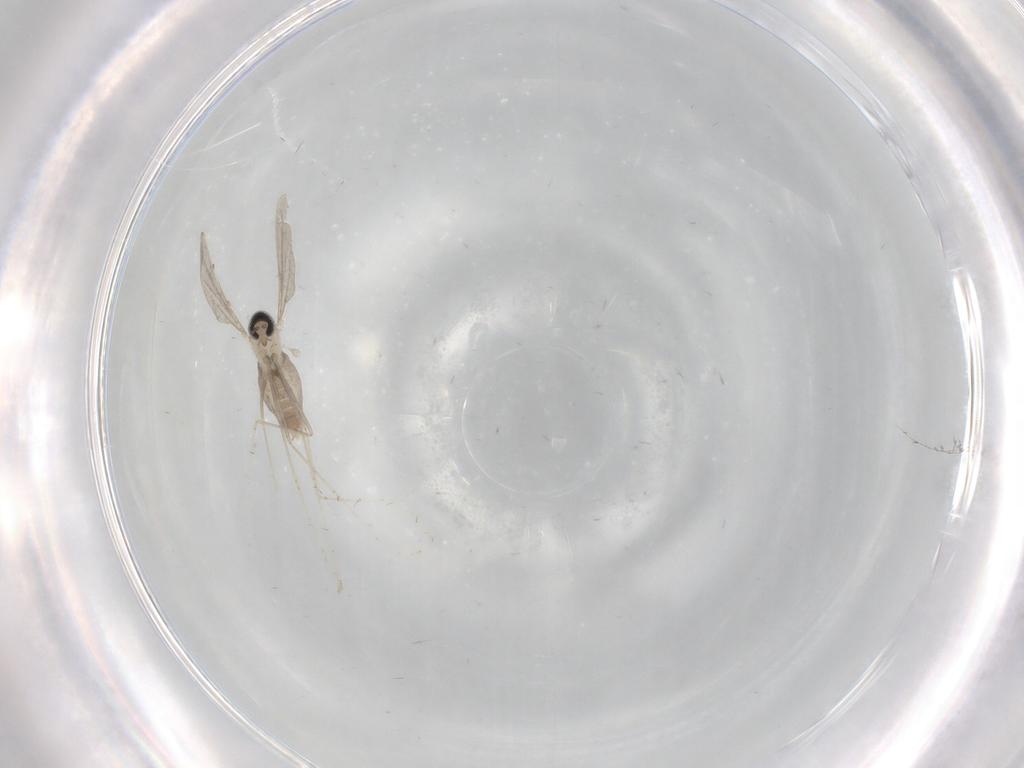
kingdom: Animalia
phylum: Arthropoda
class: Insecta
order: Diptera
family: Cecidomyiidae
